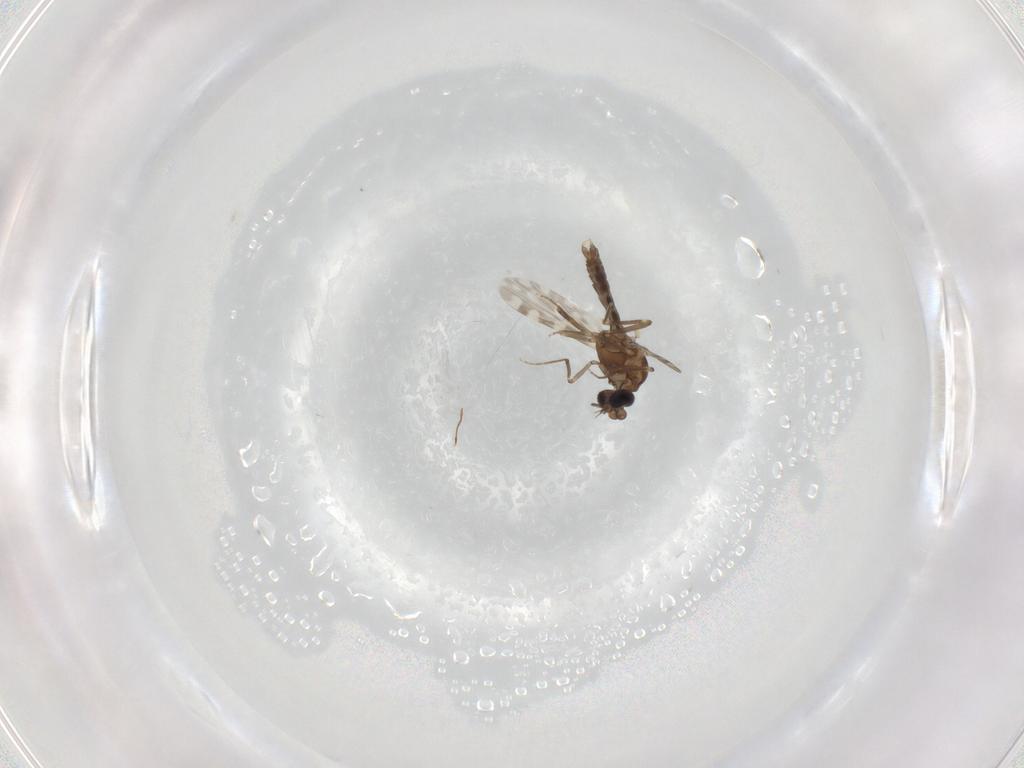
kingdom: Animalia
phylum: Arthropoda
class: Insecta
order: Diptera
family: Ceratopogonidae
